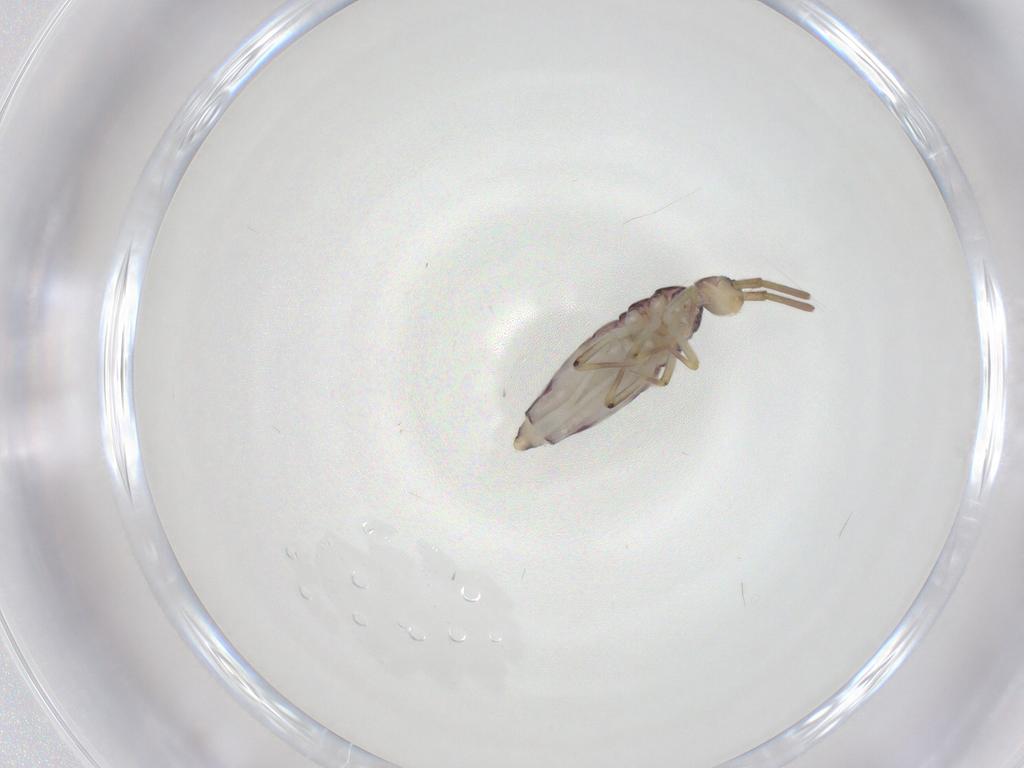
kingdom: Animalia
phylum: Arthropoda
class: Collembola
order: Entomobryomorpha
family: Entomobryidae
